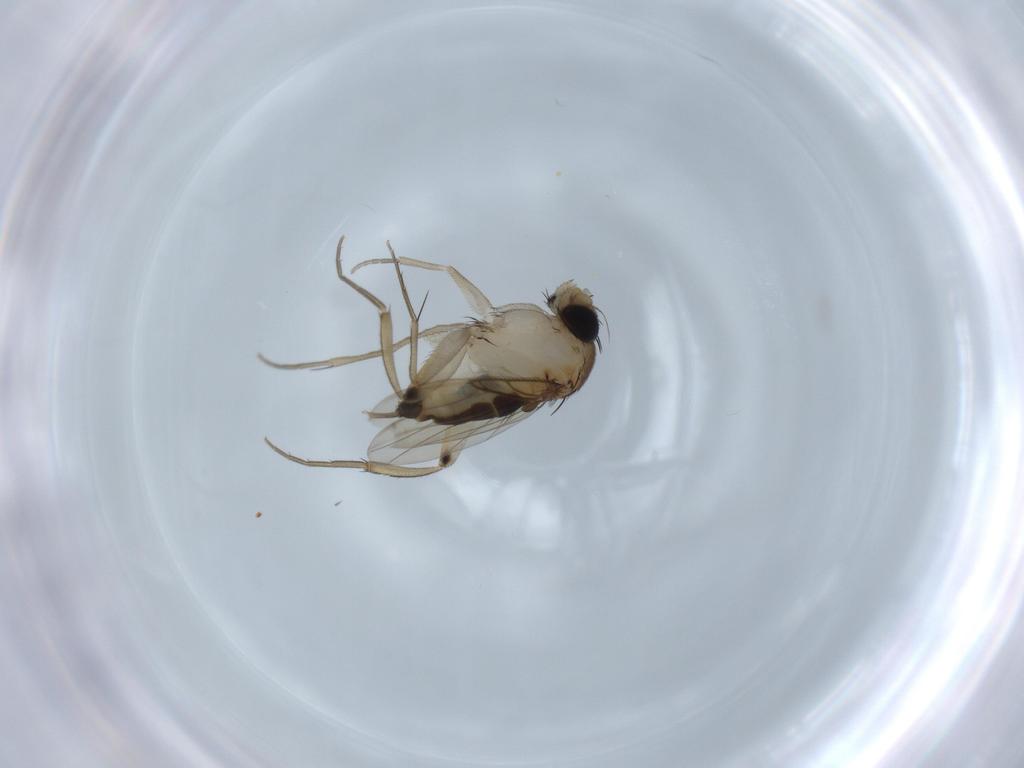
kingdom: Animalia
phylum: Arthropoda
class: Insecta
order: Diptera
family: Phoridae
